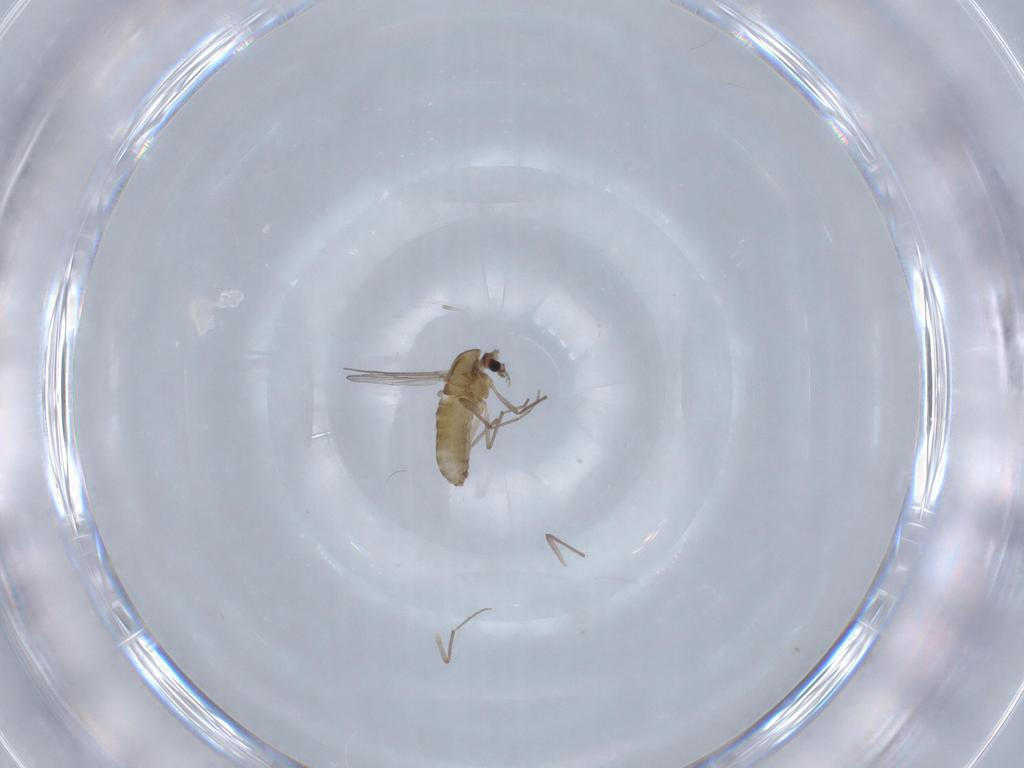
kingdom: Animalia
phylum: Arthropoda
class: Insecta
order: Diptera
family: Chironomidae
